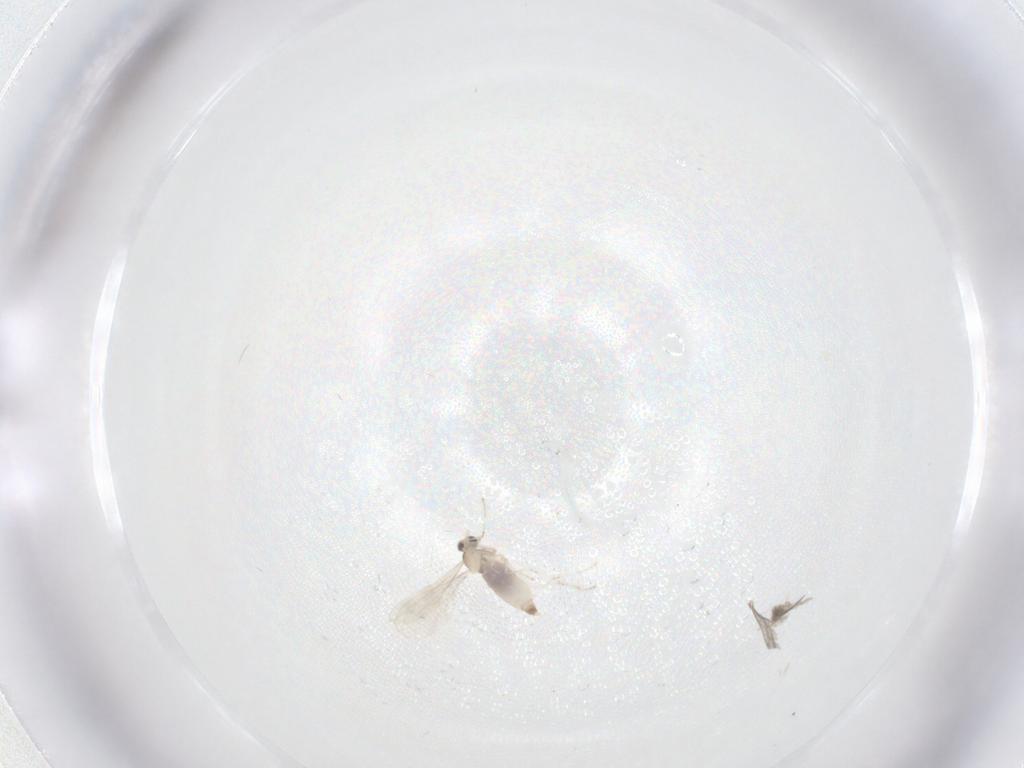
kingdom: Animalia
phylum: Arthropoda
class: Insecta
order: Diptera
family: Cecidomyiidae
